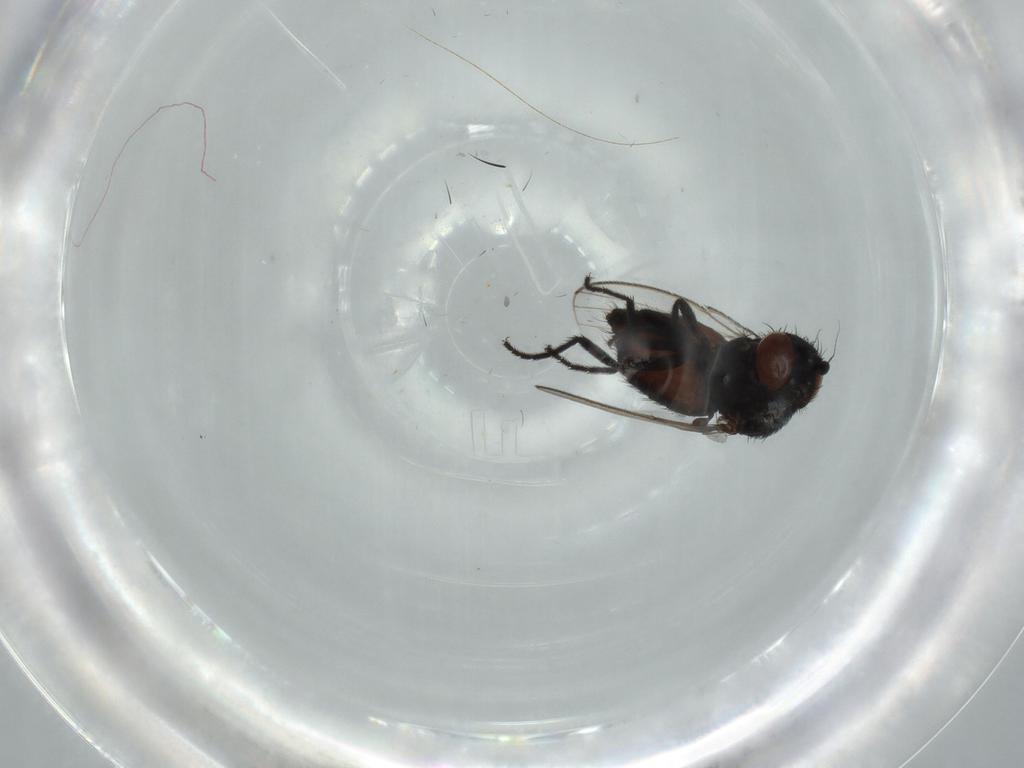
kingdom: Animalia
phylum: Arthropoda
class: Insecta
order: Diptera
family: Milichiidae
